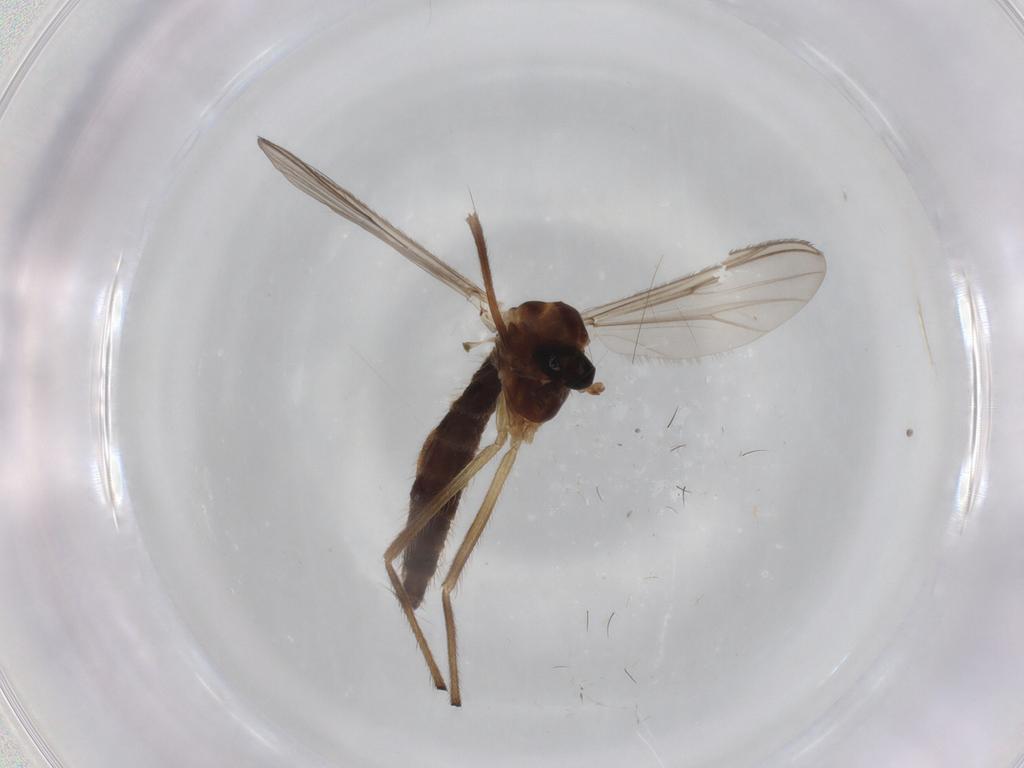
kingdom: Animalia
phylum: Arthropoda
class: Insecta
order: Diptera
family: Chironomidae
